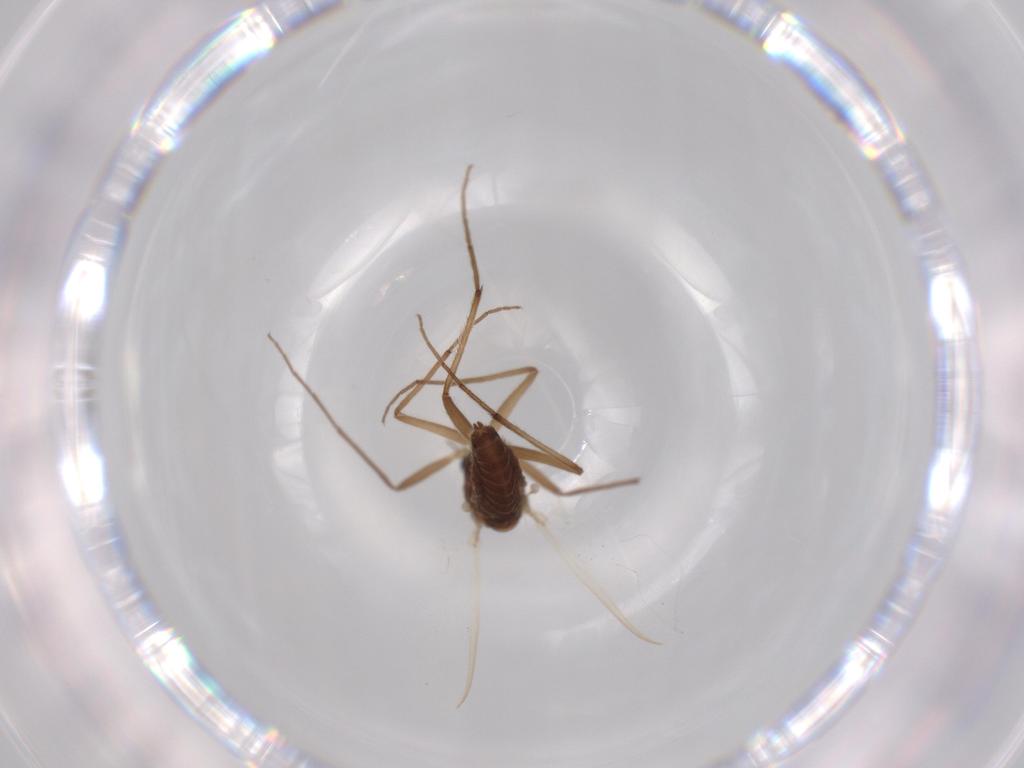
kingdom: Animalia
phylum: Arthropoda
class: Insecta
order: Diptera
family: Chironomidae
